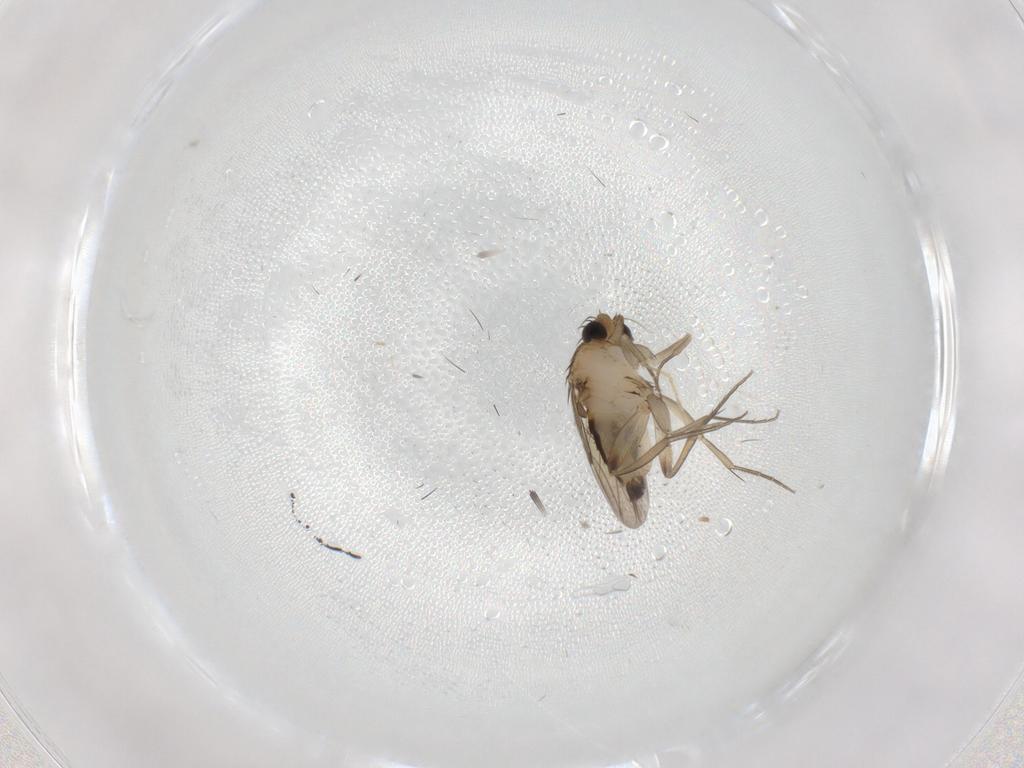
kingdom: Animalia
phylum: Arthropoda
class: Insecta
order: Diptera
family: Phoridae
